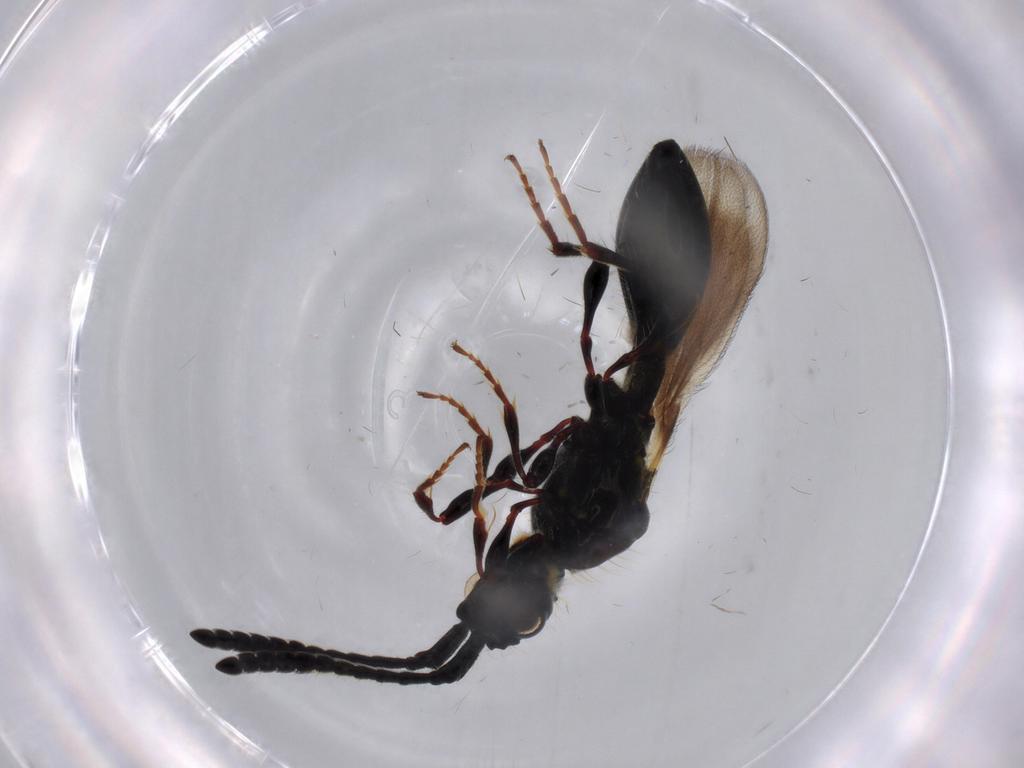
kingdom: Animalia
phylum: Arthropoda
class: Insecta
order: Hymenoptera
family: Diapriidae
